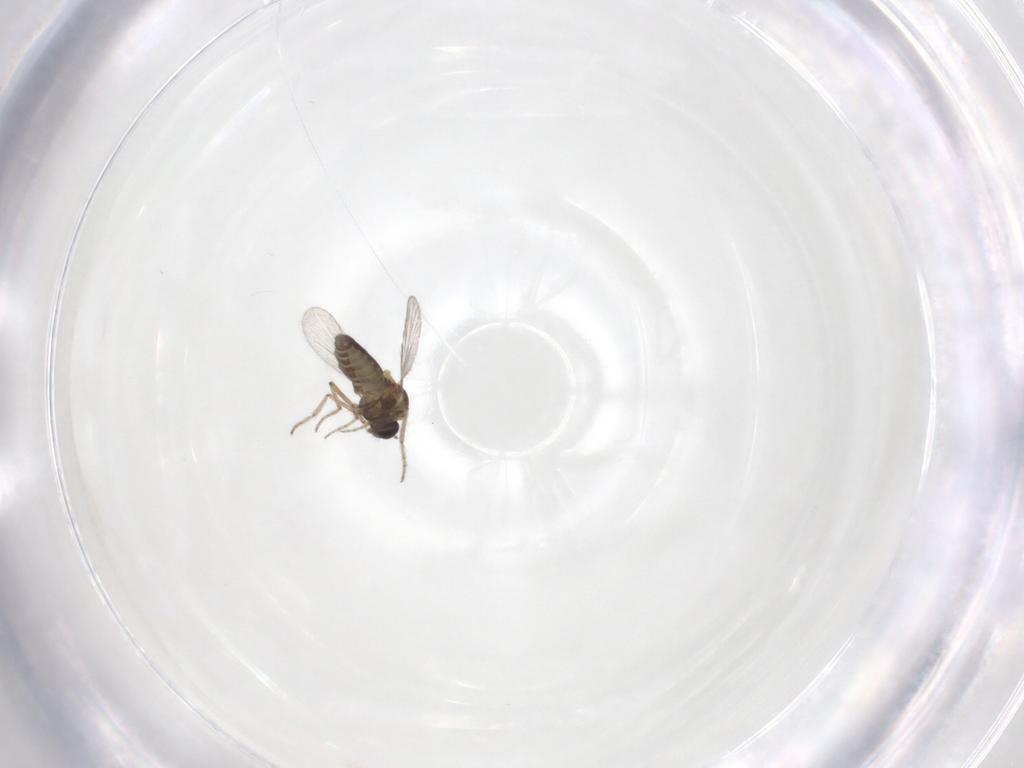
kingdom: Animalia
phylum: Arthropoda
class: Insecta
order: Diptera
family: Ceratopogonidae
